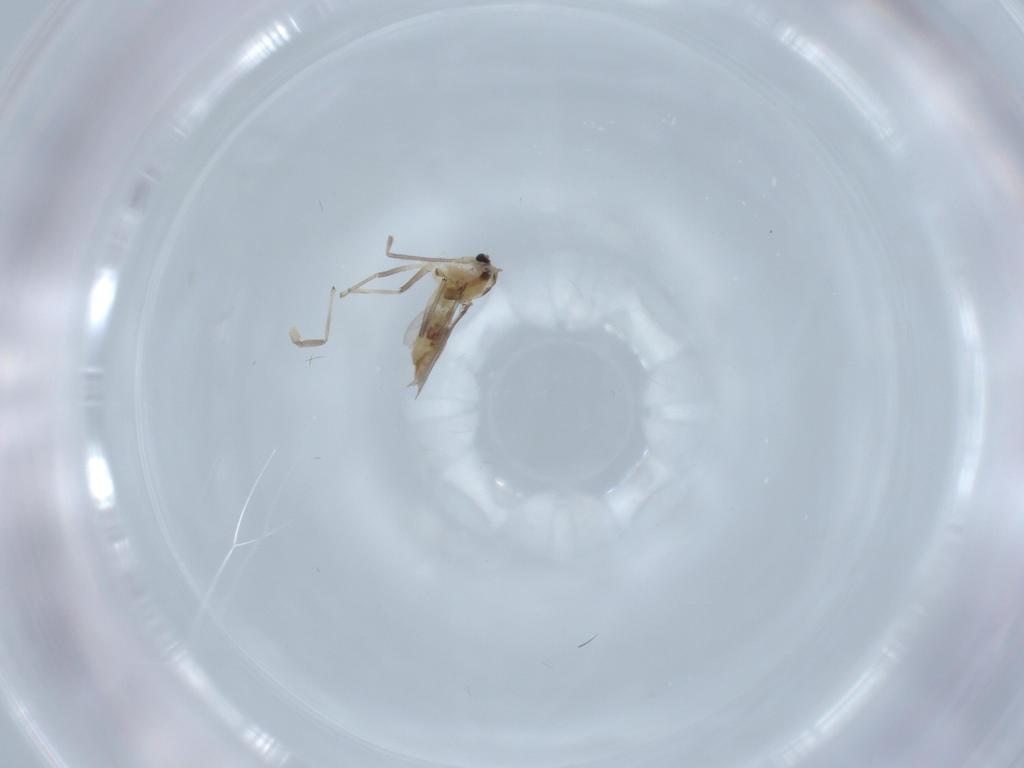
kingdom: Animalia
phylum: Arthropoda
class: Insecta
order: Diptera
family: Chironomidae
